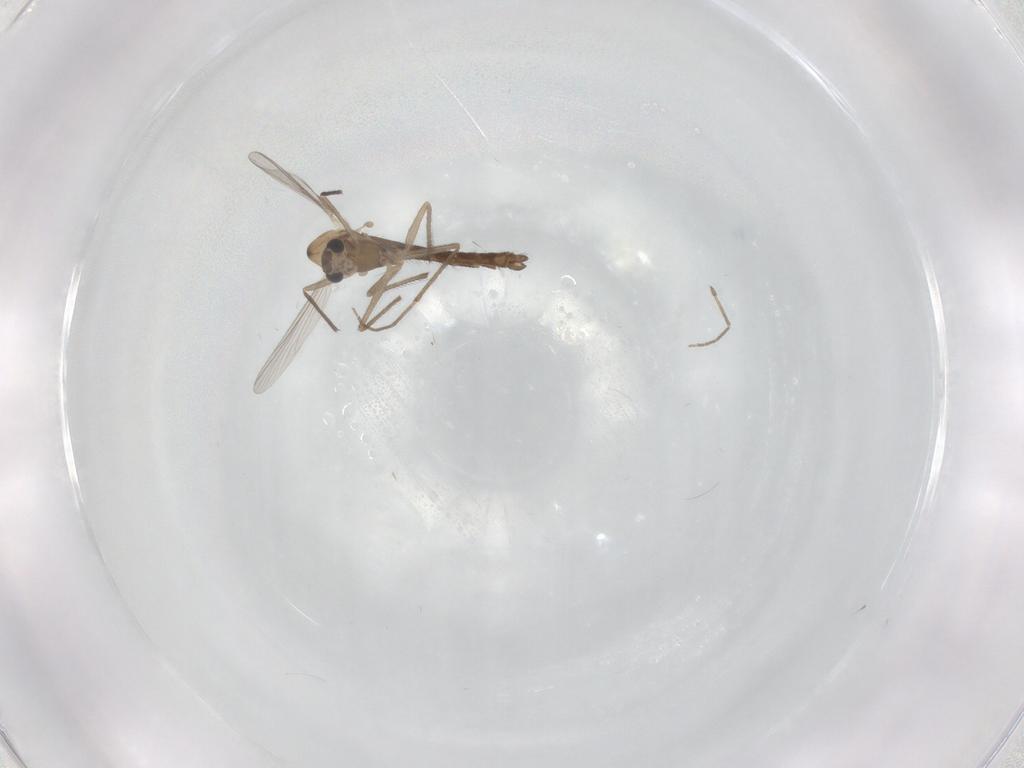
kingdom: Animalia
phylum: Arthropoda
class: Insecta
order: Diptera
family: Chironomidae
